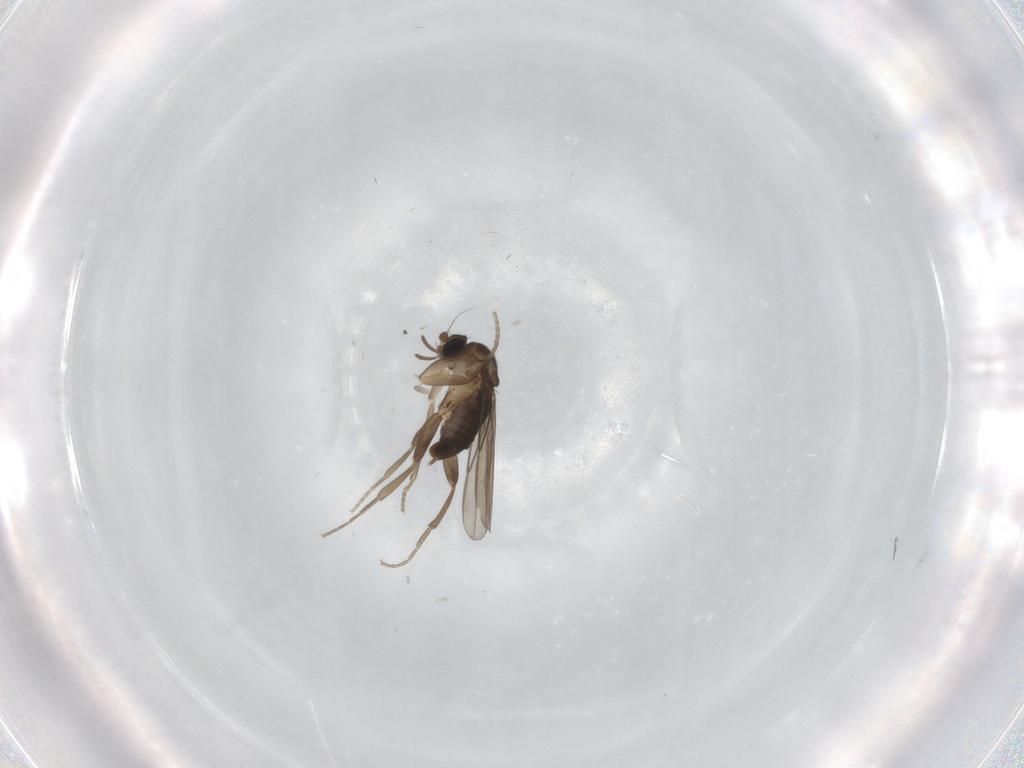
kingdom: Animalia
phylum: Arthropoda
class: Insecta
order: Diptera
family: Sciaridae
